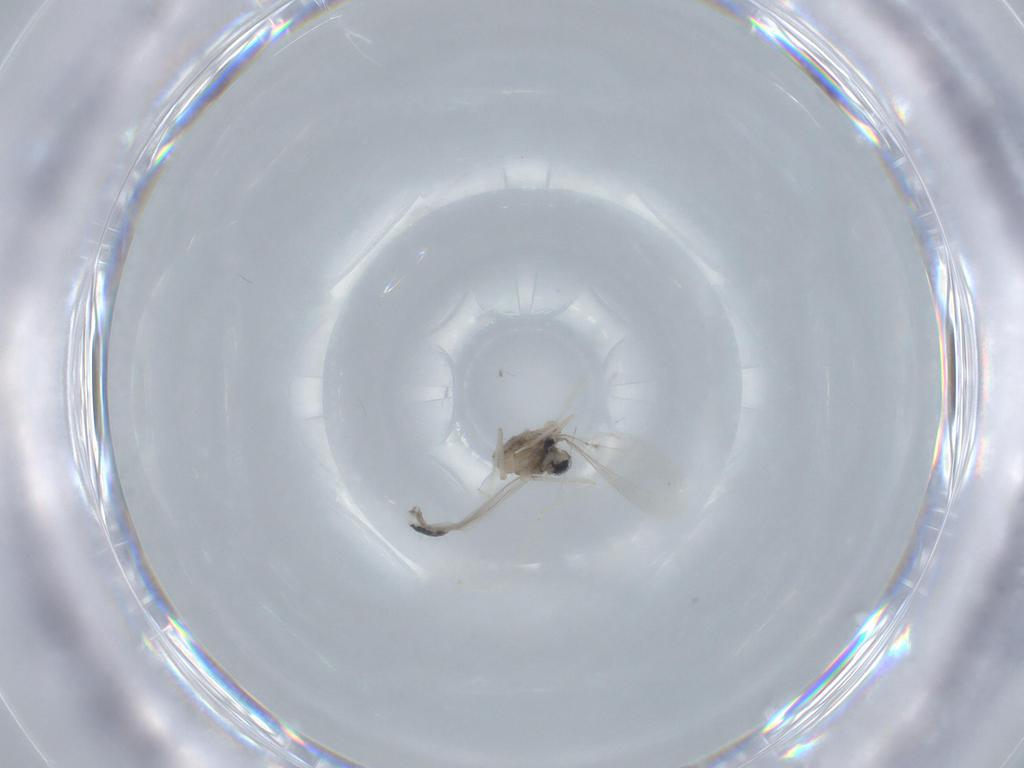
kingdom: Animalia
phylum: Arthropoda
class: Insecta
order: Diptera
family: Cecidomyiidae
